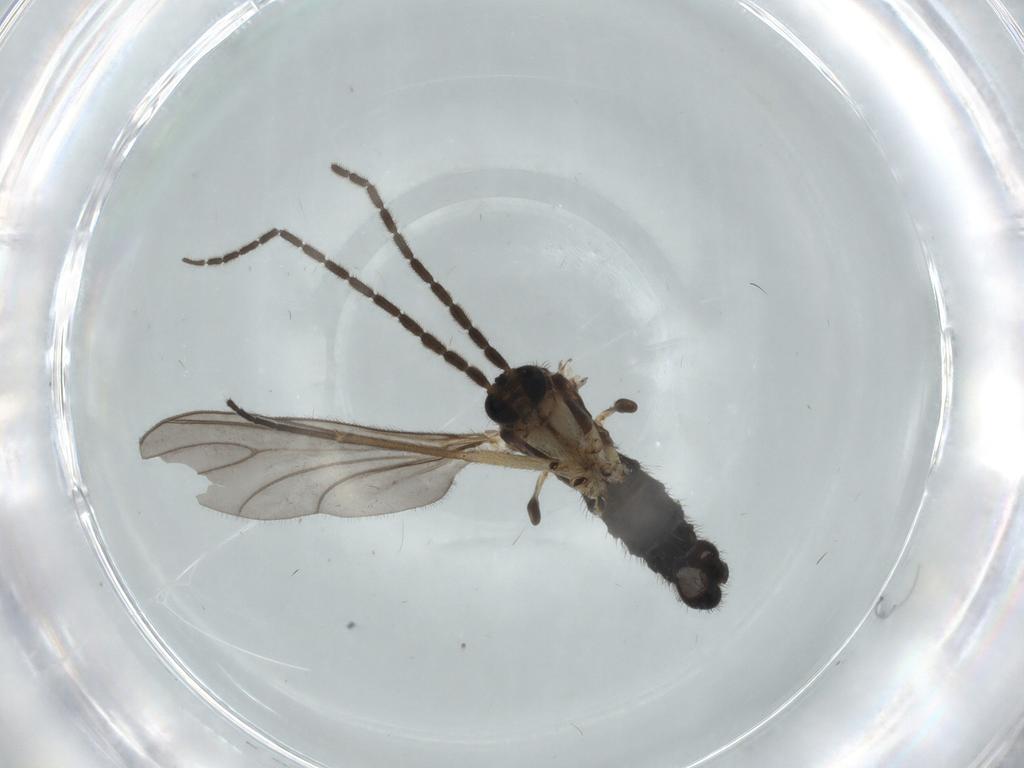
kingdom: Animalia
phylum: Arthropoda
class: Insecta
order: Diptera
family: Sciaridae
